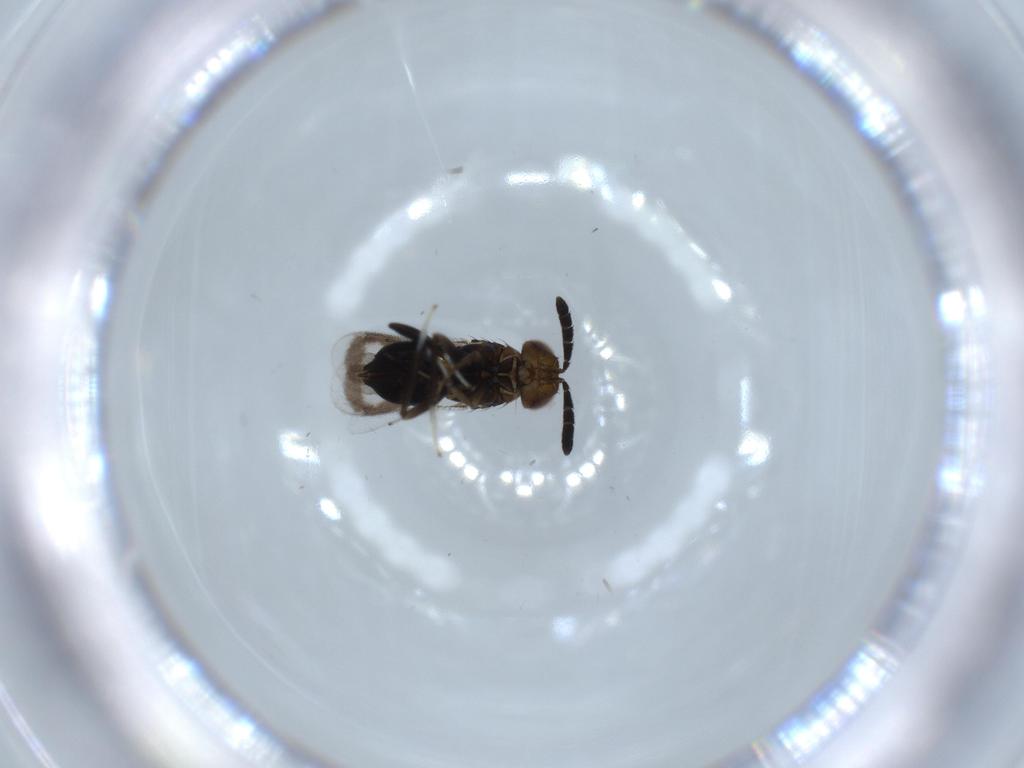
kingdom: Animalia
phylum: Arthropoda
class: Insecta
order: Hymenoptera
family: Aphelinidae
